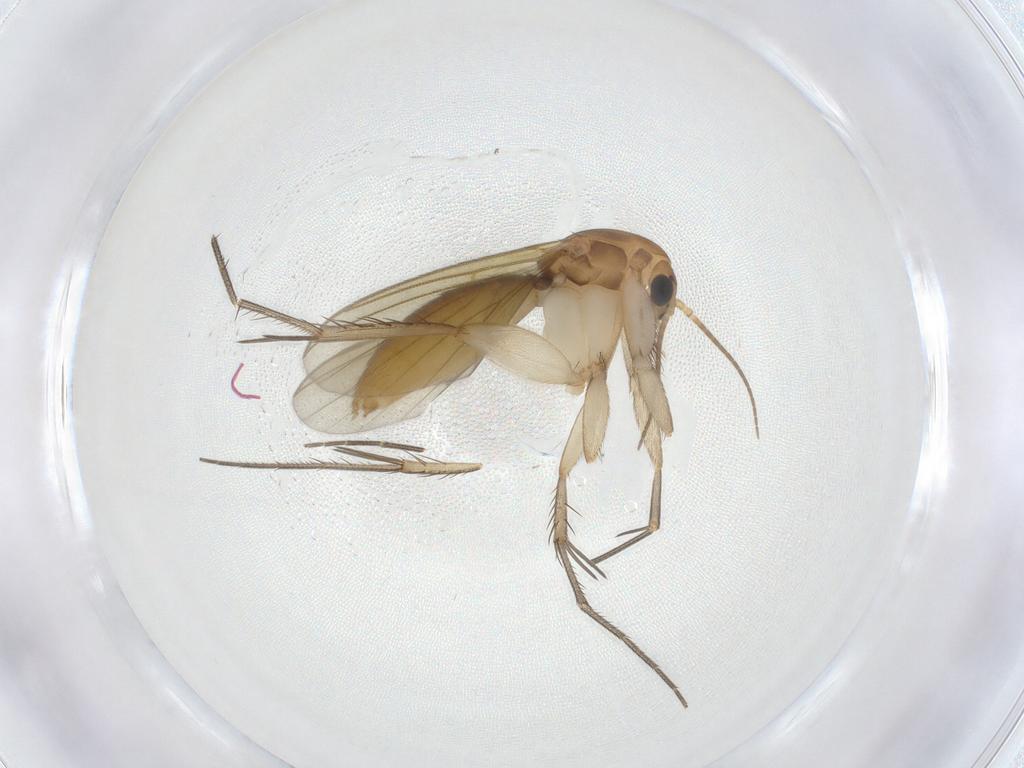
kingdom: Animalia
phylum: Arthropoda
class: Insecta
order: Diptera
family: Mycetophilidae
